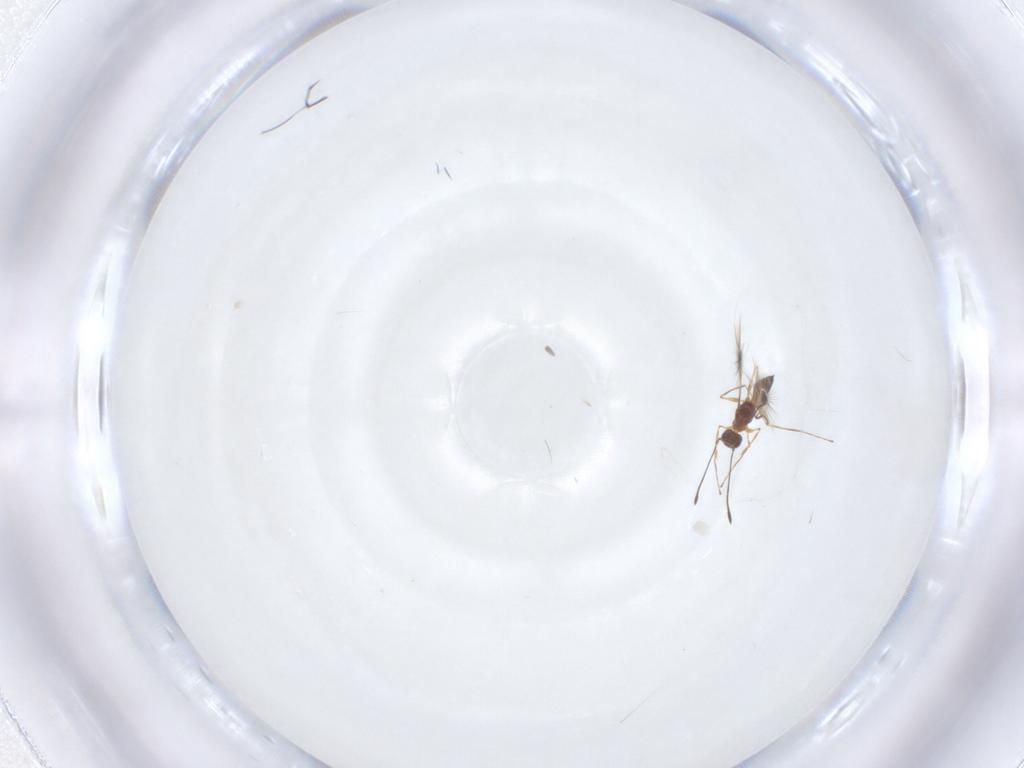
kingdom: Animalia
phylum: Arthropoda
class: Insecta
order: Hymenoptera
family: Mymaridae
